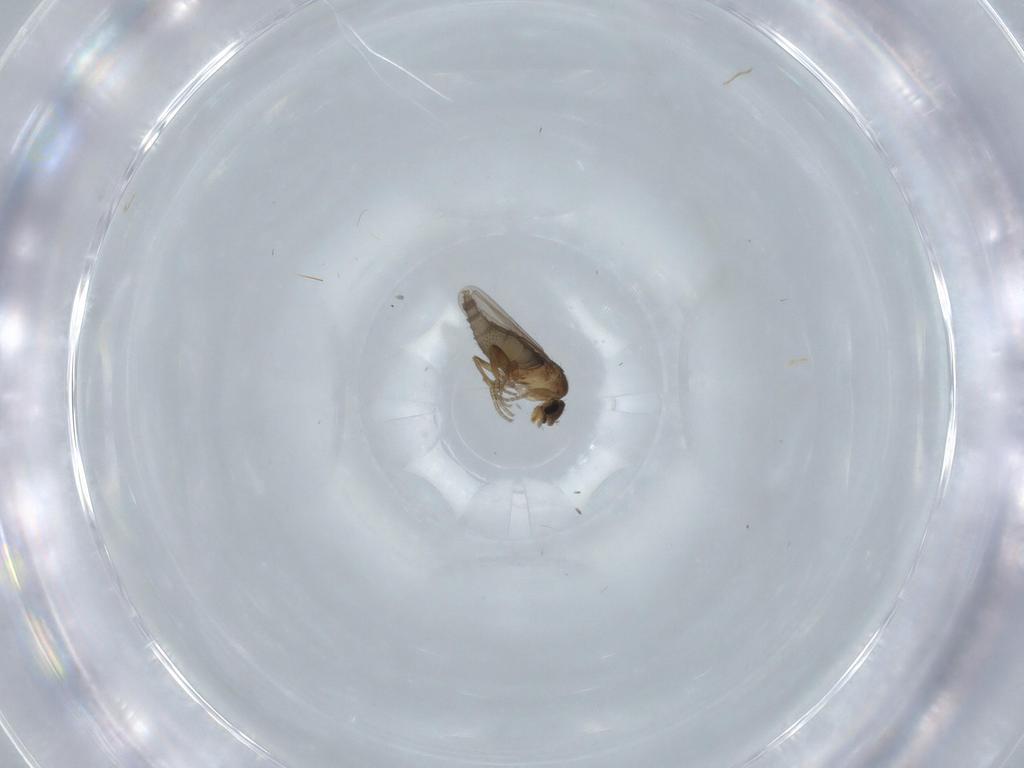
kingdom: Animalia
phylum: Arthropoda
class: Insecta
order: Diptera
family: Phoridae
